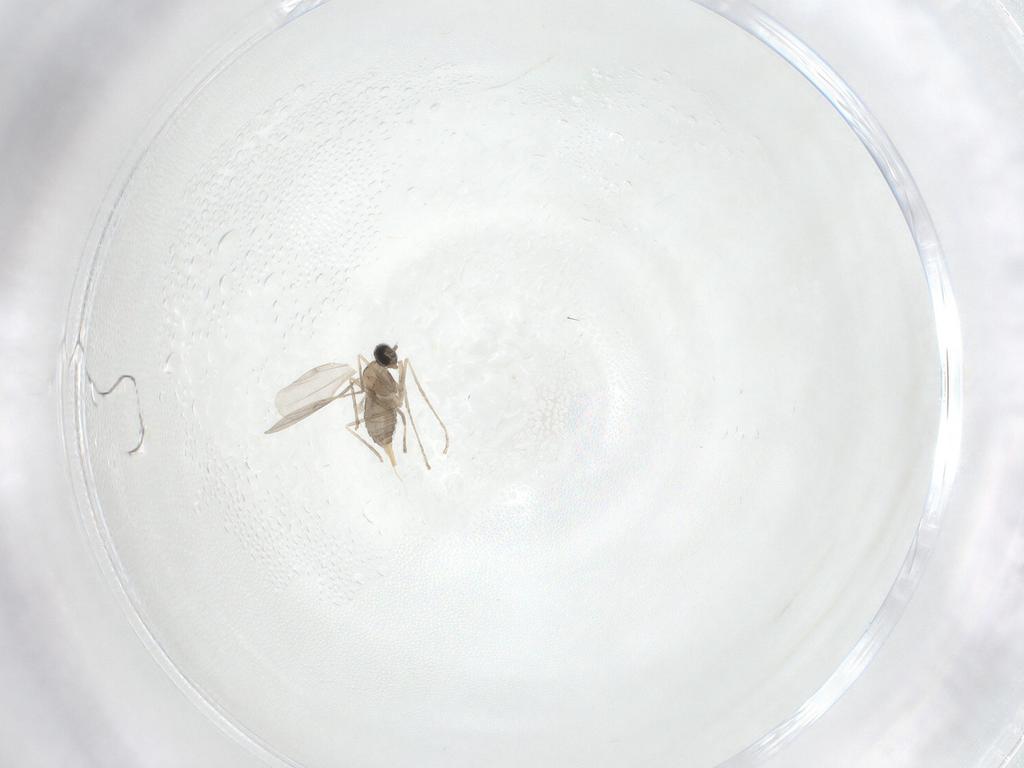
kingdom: Animalia
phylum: Arthropoda
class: Insecta
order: Diptera
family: Cecidomyiidae
